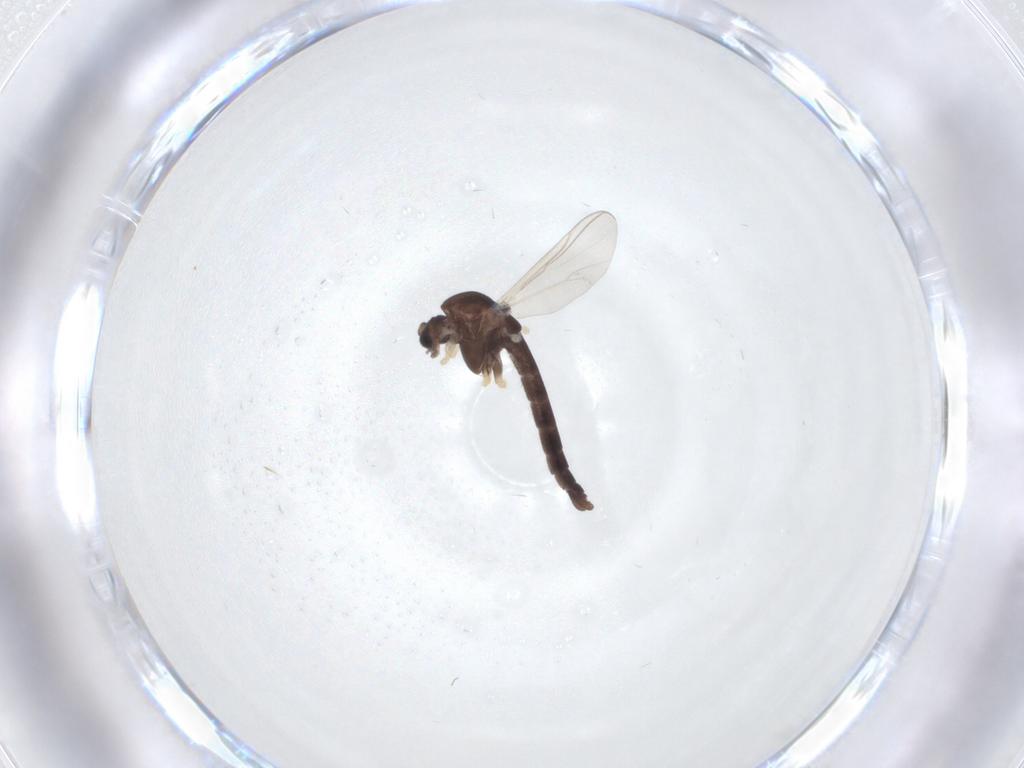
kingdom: Animalia
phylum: Arthropoda
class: Insecta
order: Diptera
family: Chironomidae
